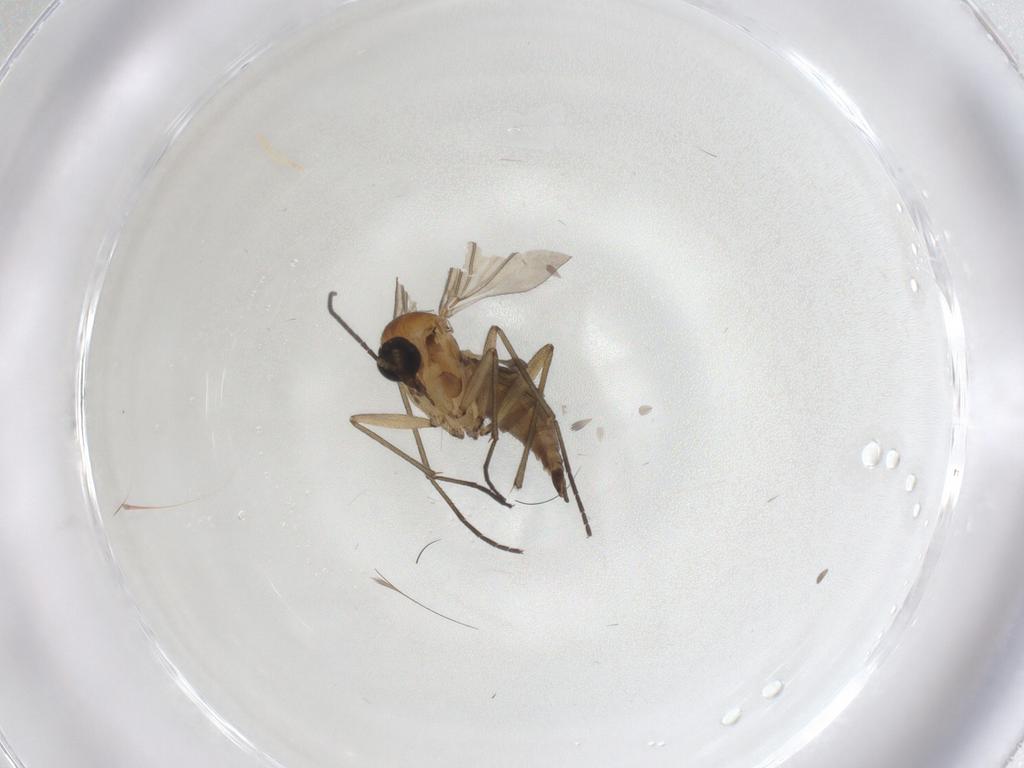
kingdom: Animalia
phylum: Arthropoda
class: Insecta
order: Diptera
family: Sciaridae
